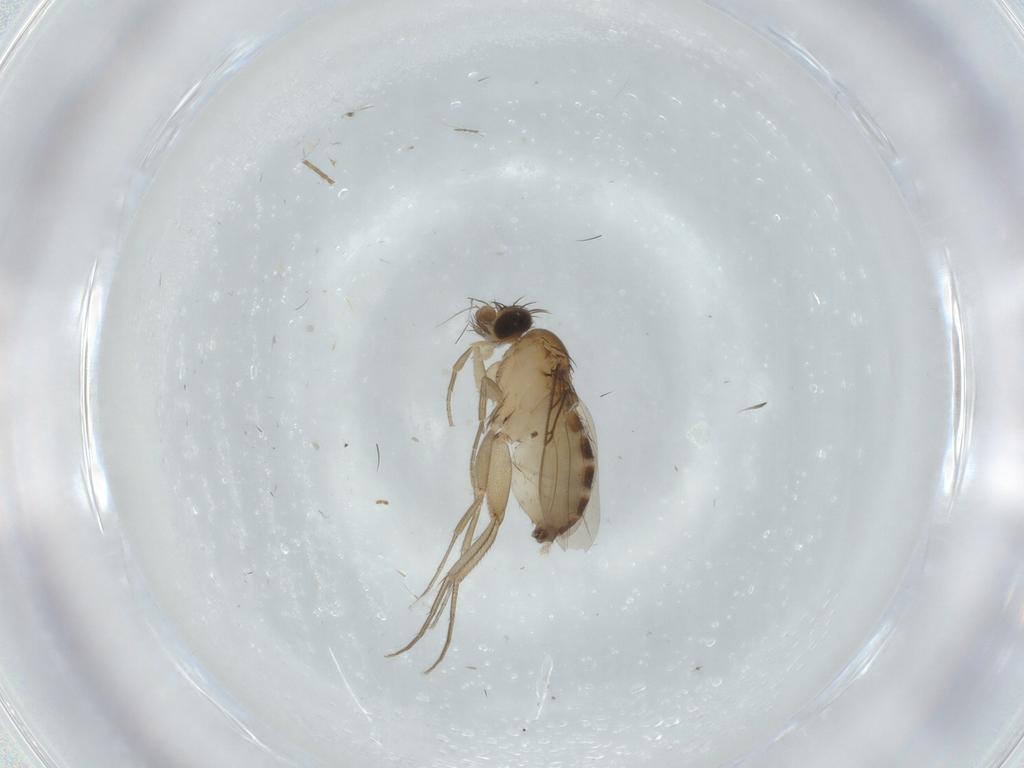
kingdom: Animalia
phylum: Arthropoda
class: Insecta
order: Diptera
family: Phoridae
